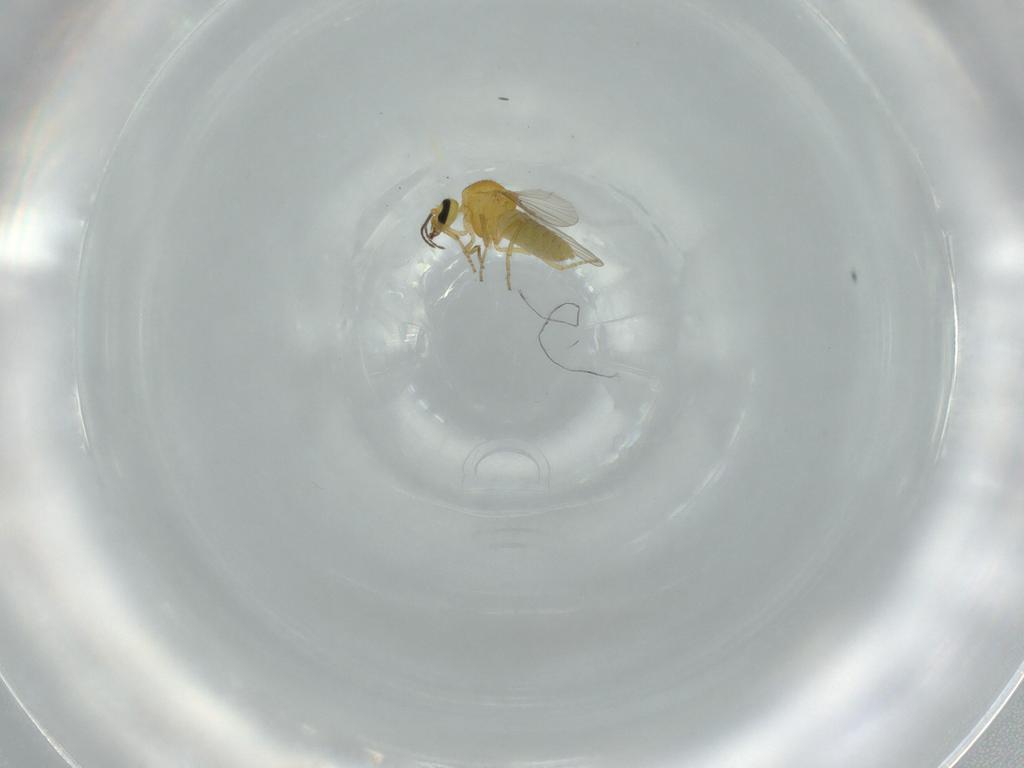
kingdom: Animalia
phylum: Arthropoda
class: Insecta
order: Diptera
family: Ceratopogonidae
